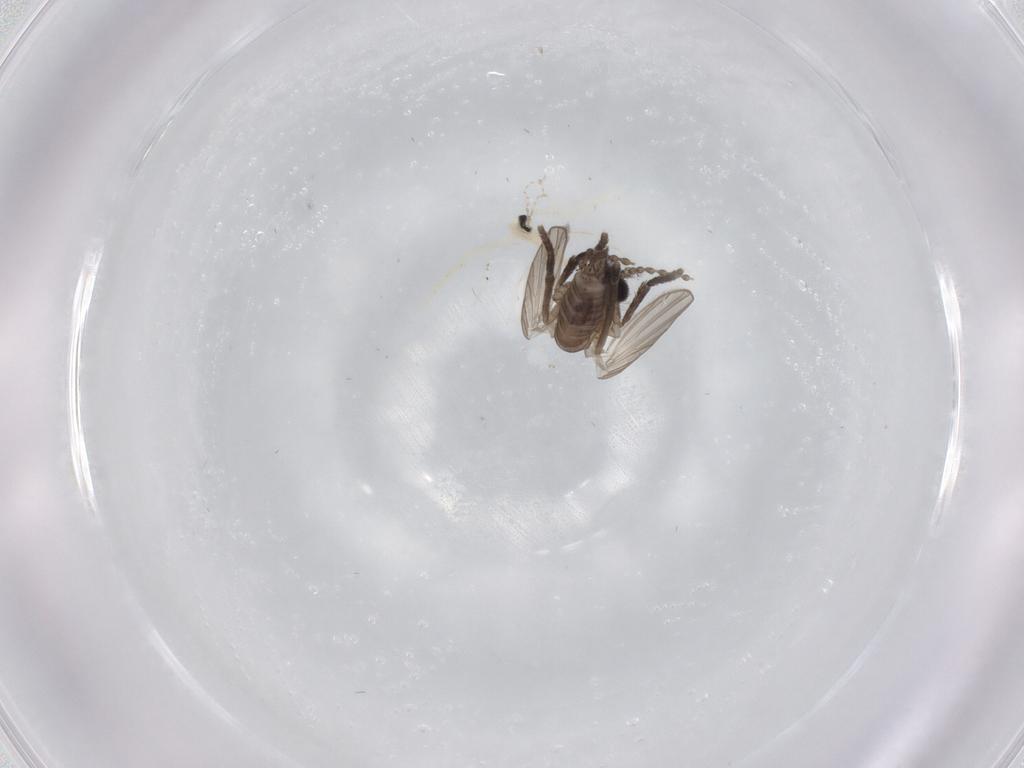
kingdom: Animalia
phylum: Arthropoda
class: Insecta
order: Diptera
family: Psychodidae
